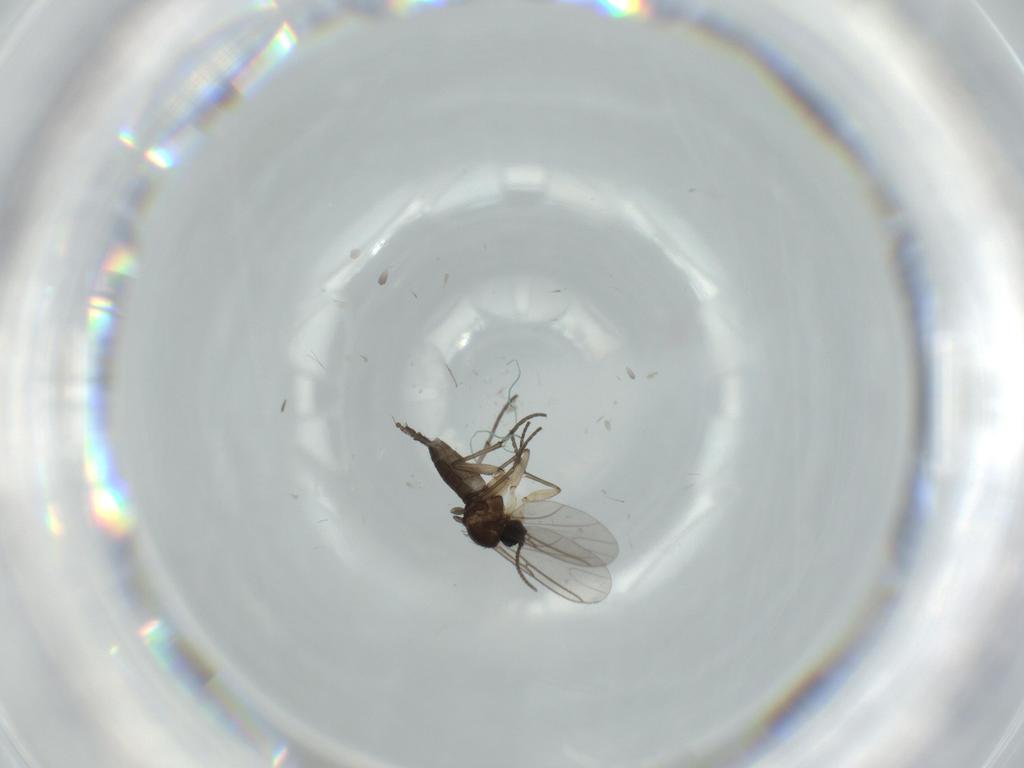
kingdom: Animalia
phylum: Arthropoda
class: Insecta
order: Diptera
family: Sciaridae
